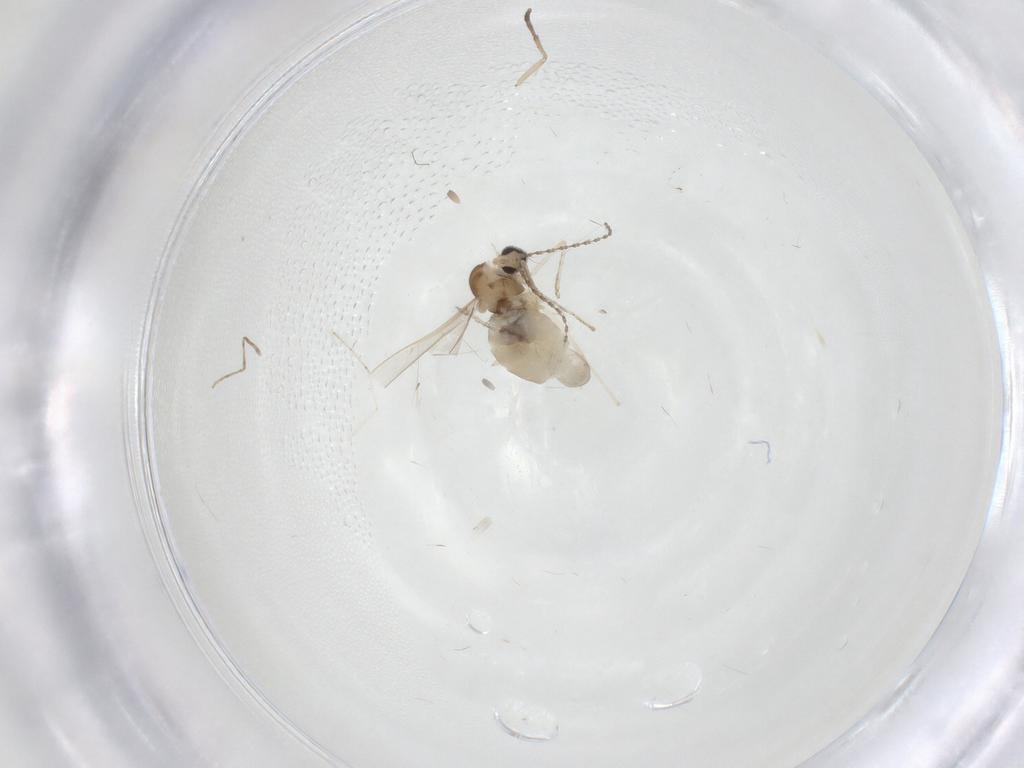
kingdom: Animalia
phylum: Arthropoda
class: Insecta
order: Diptera
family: Cecidomyiidae
